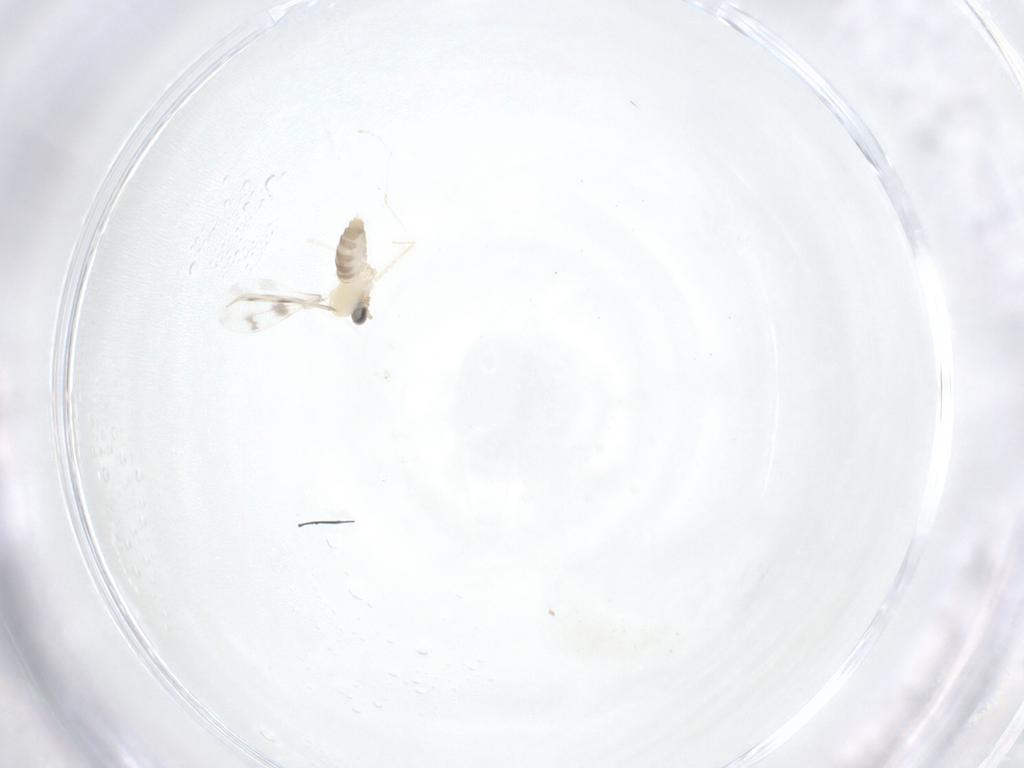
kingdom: Animalia
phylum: Arthropoda
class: Insecta
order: Diptera
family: Cecidomyiidae
